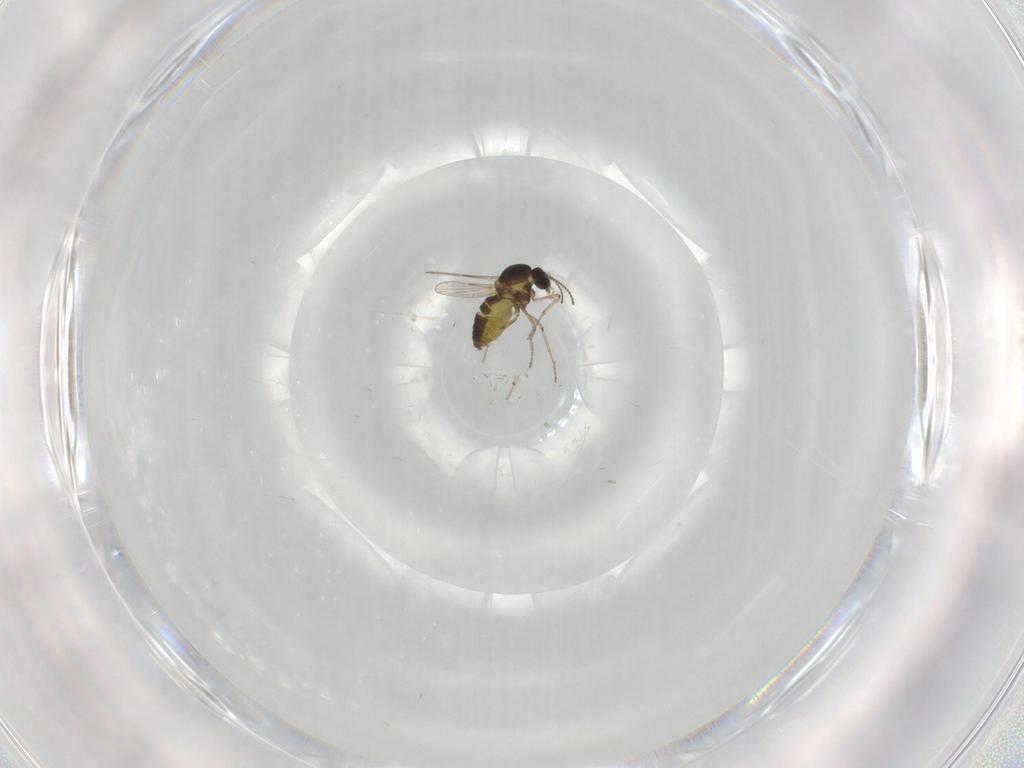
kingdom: Animalia
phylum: Arthropoda
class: Insecta
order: Diptera
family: Ceratopogonidae
